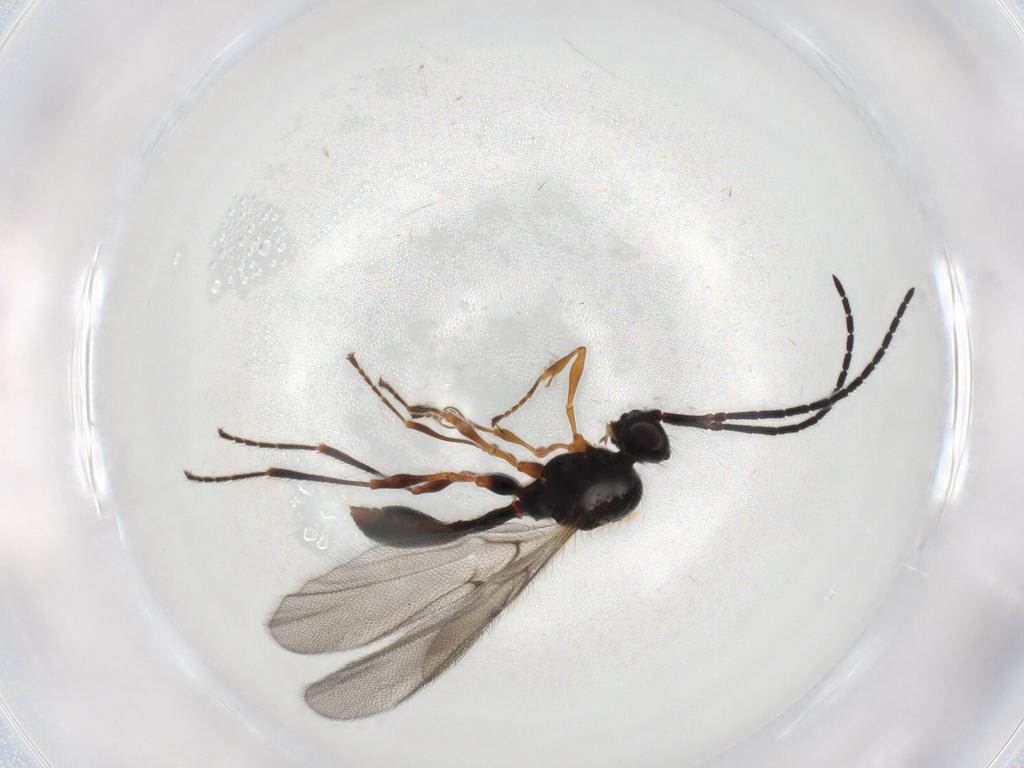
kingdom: Animalia
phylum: Arthropoda
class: Insecta
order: Hymenoptera
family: Diapriidae
